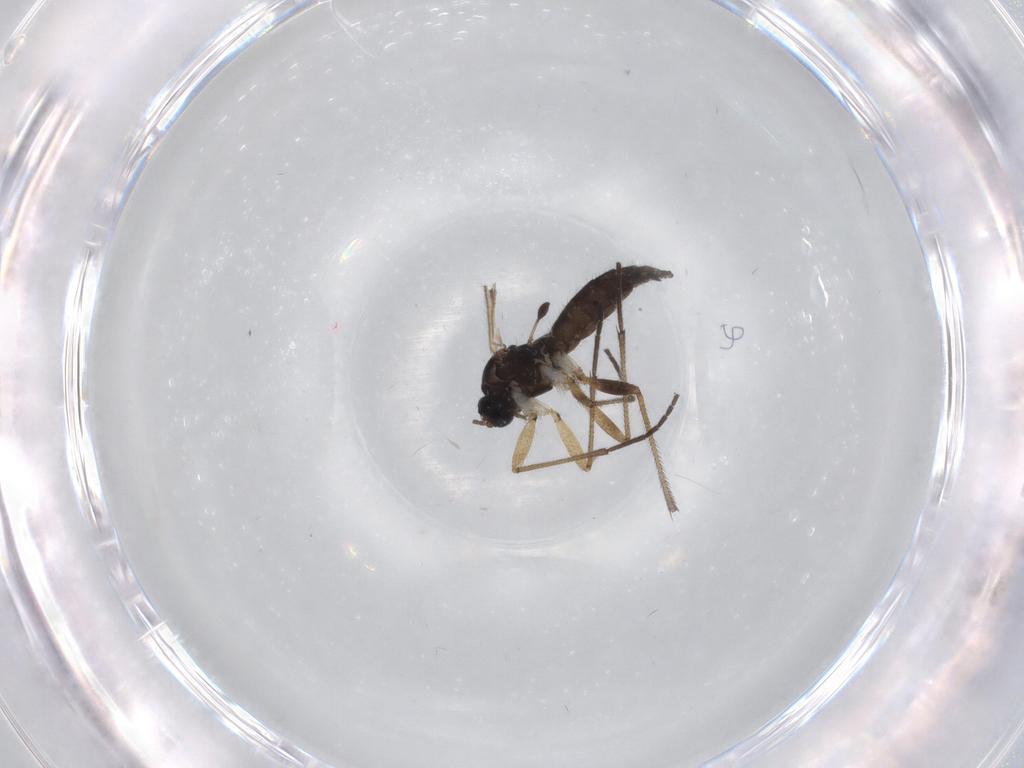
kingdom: Animalia
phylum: Arthropoda
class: Insecta
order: Diptera
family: Sciaridae
